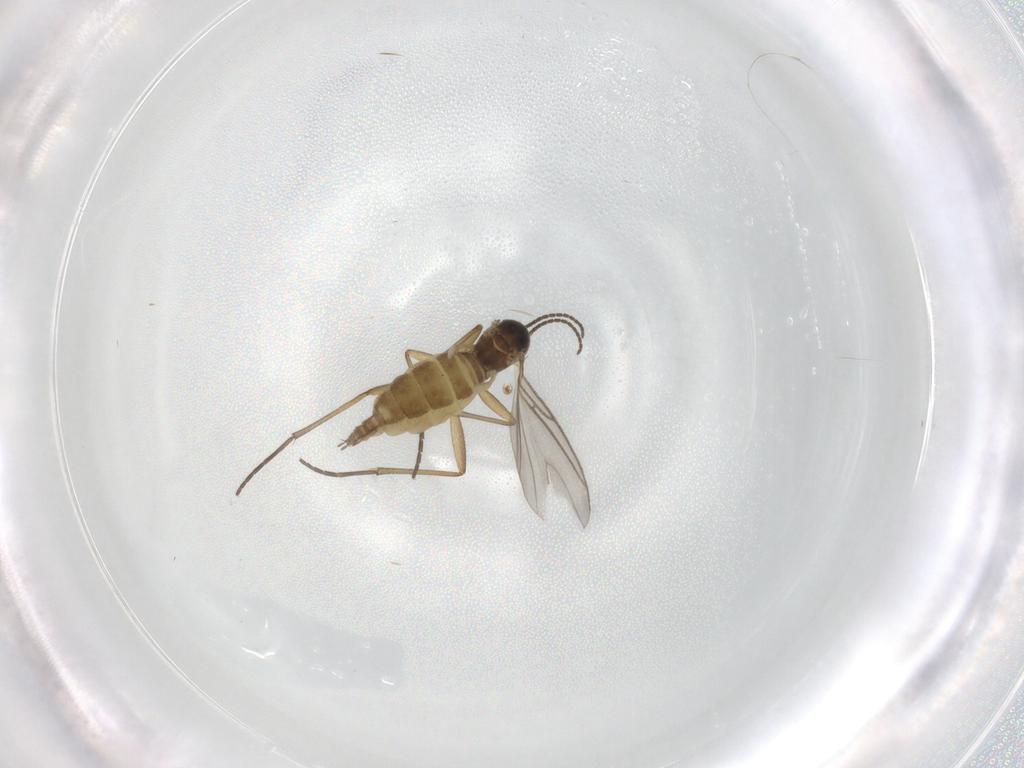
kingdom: Animalia
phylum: Arthropoda
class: Insecta
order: Diptera
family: Sciaridae
